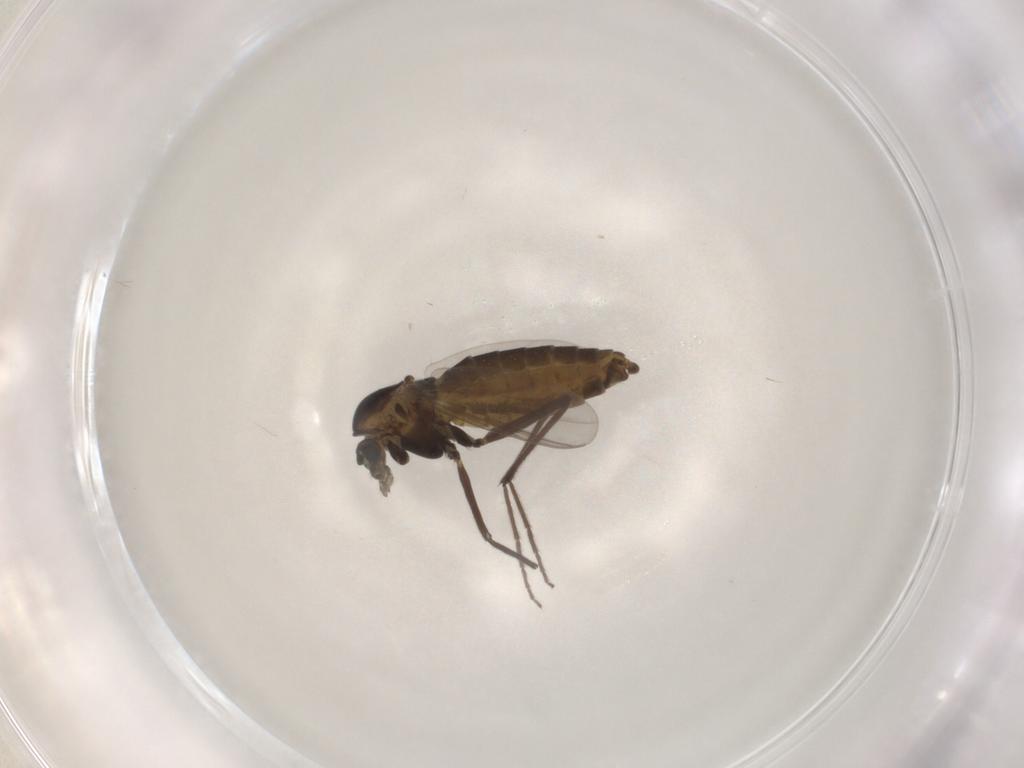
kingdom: Animalia
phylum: Arthropoda
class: Insecta
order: Diptera
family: Chironomidae
